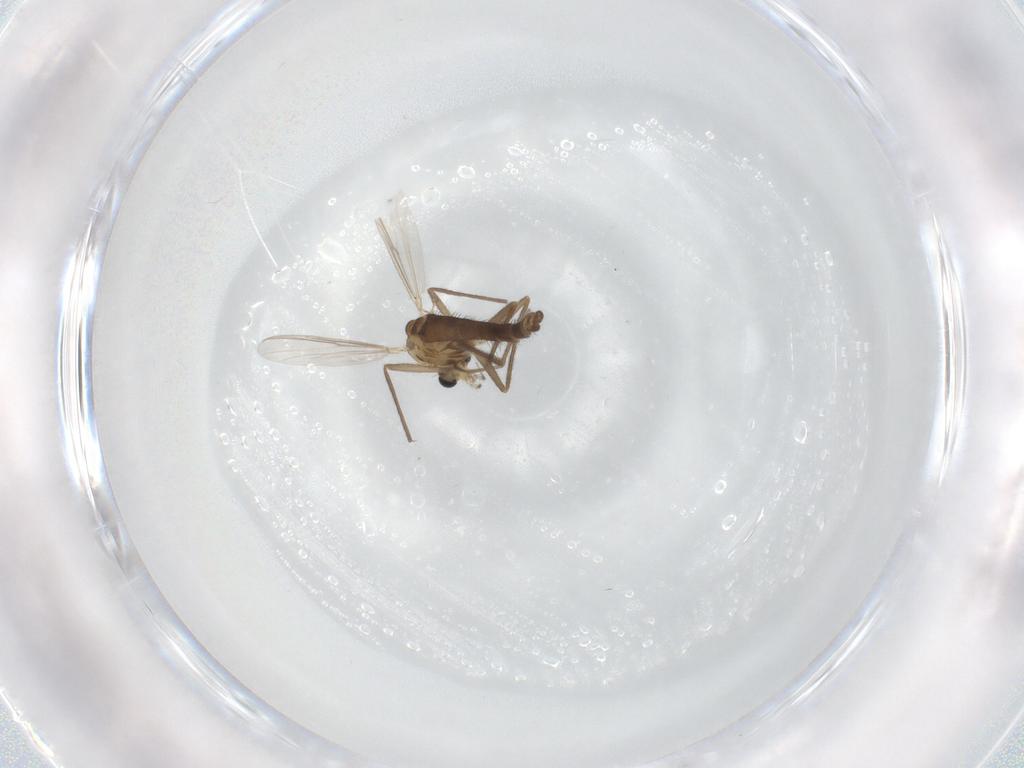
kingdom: Animalia
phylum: Arthropoda
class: Insecta
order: Diptera
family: Chironomidae
